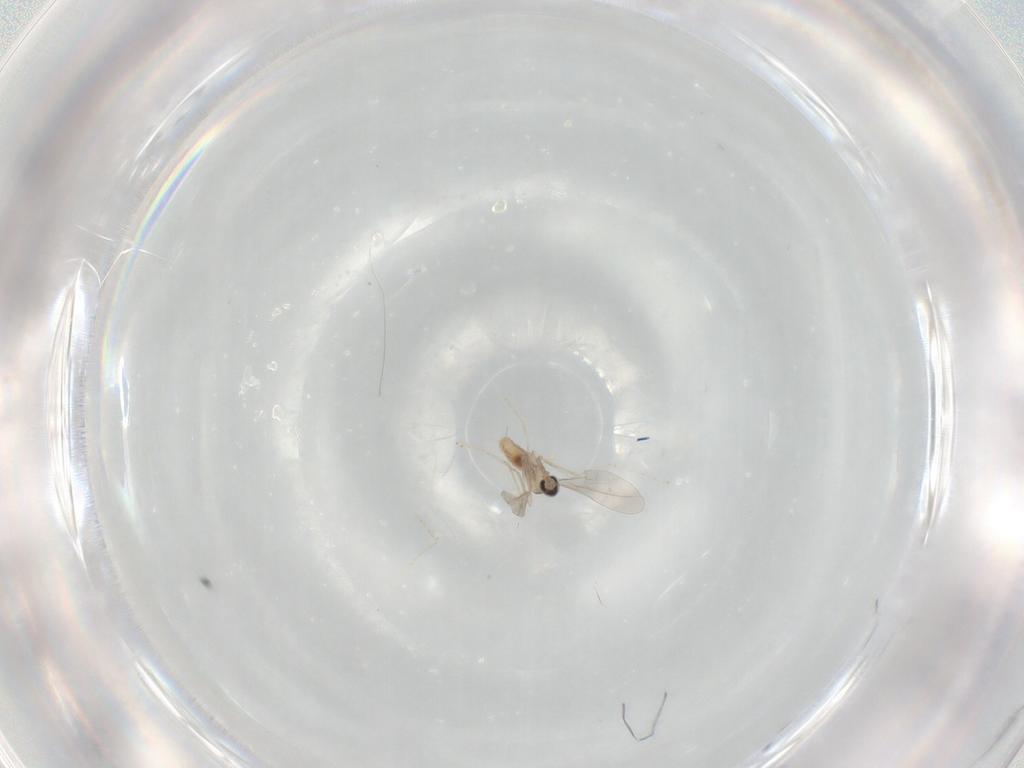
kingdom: Animalia
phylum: Arthropoda
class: Insecta
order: Diptera
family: Cecidomyiidae
